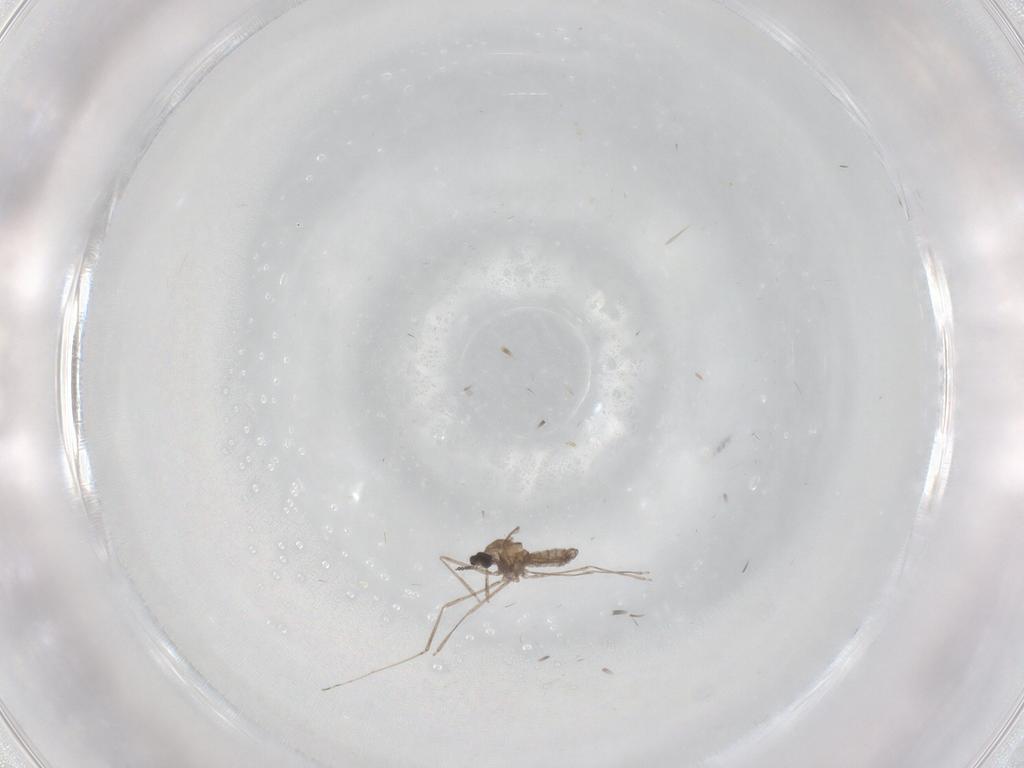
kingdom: Animalia
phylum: Arthropoda
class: Insecta
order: Diptera
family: Cecidomyiidae
